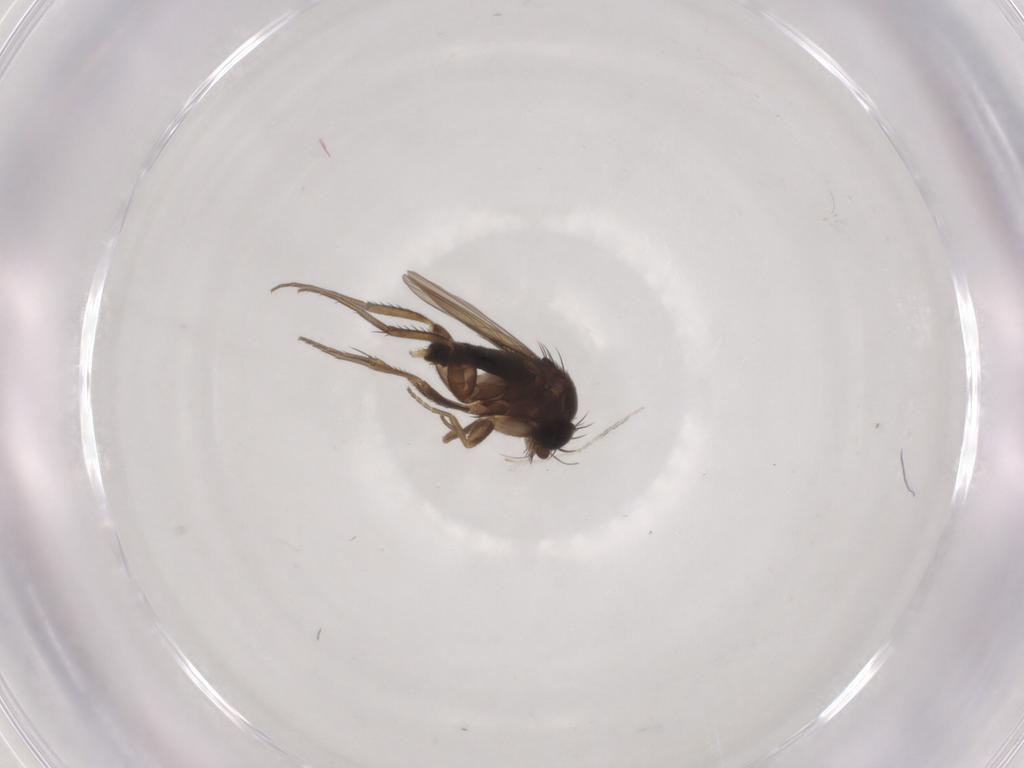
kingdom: Animalia
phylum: Arthropoda
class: Insecta
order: Diptera
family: Phoridae
